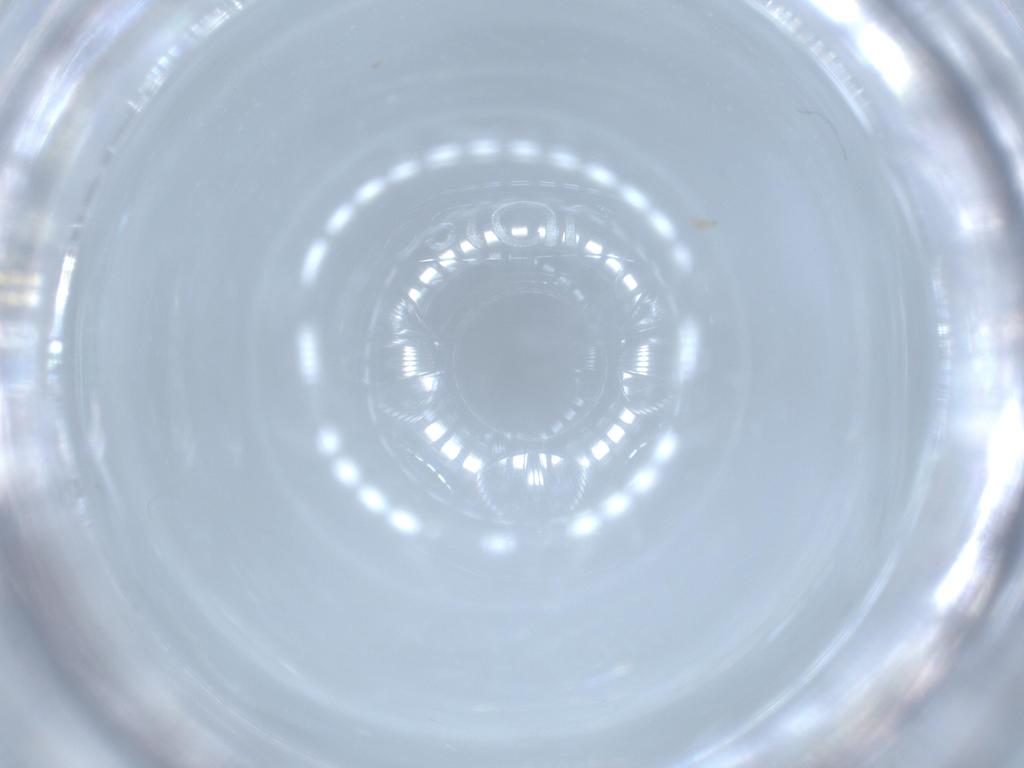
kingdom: Animalia
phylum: Arthropoda
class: Insecta
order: Hemiptera
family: Acanaloniidae
